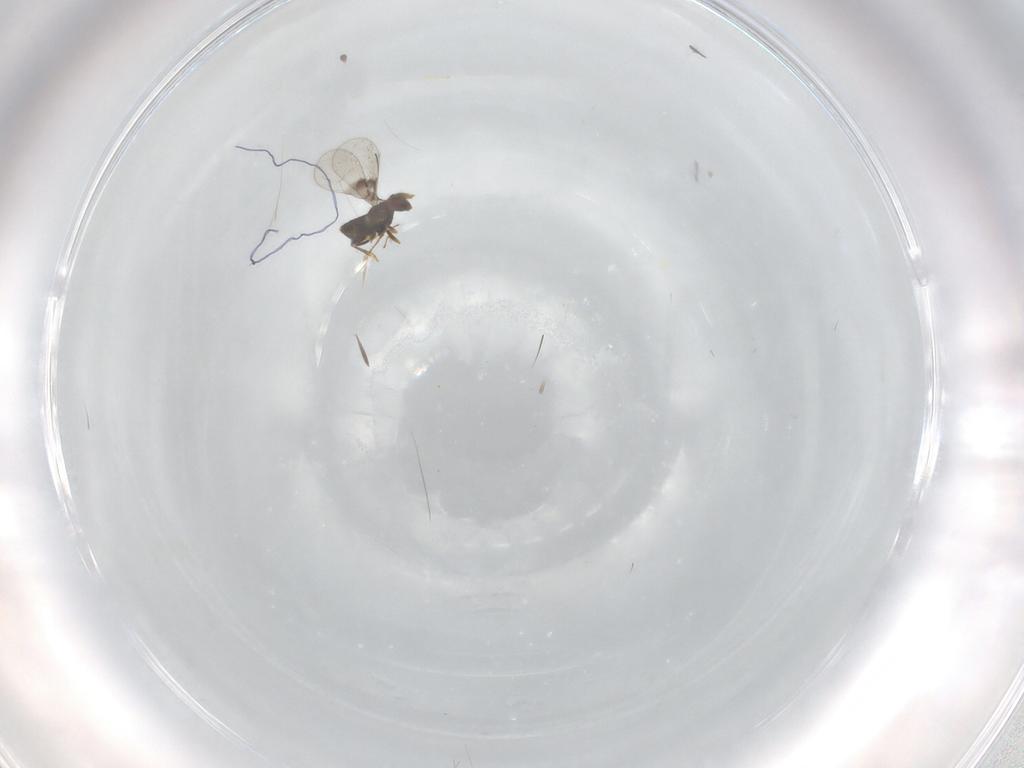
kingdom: Animalia
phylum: Arthropoda
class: Insecta
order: Hymenoptera
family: Trichogrammatidae
